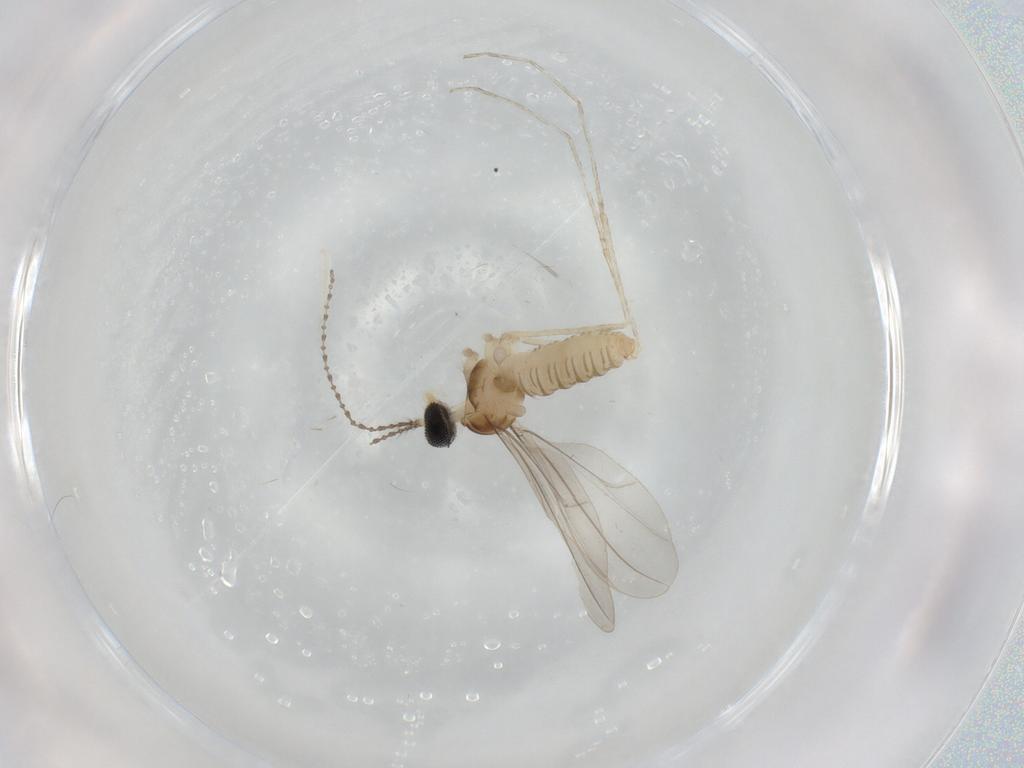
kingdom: Animalia
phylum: Arthropoda
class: Insecta
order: Diptera
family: Cecidomyiidae
